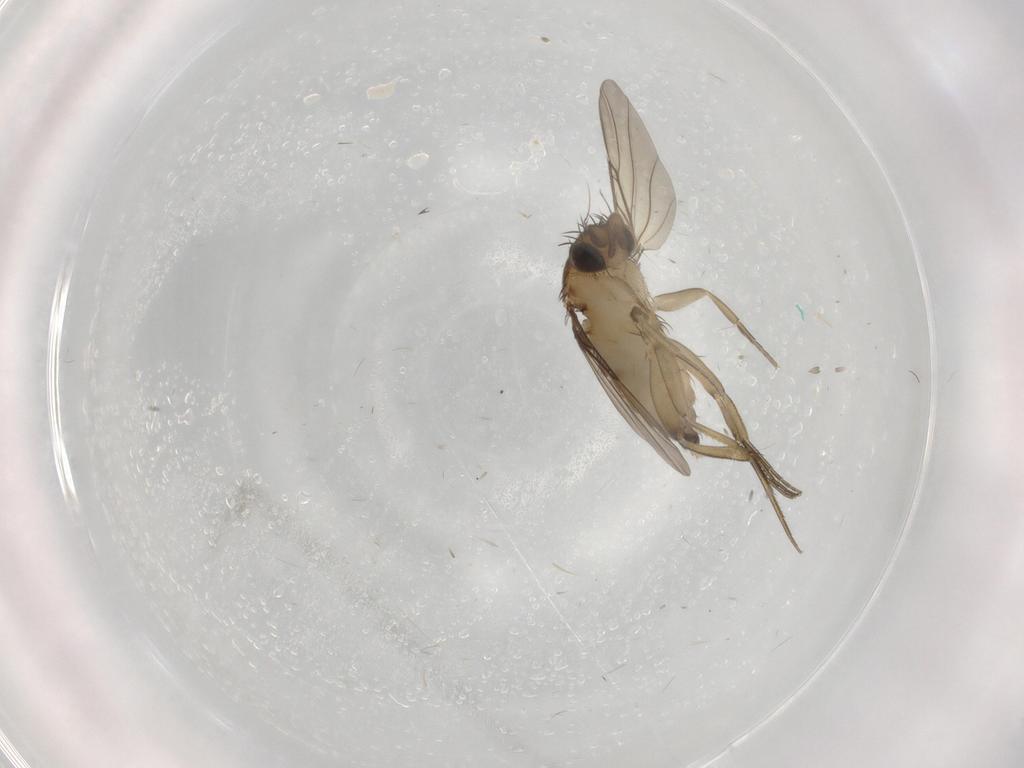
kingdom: Animalia
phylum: Arthropoda
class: Insecta
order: Diptera
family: Phoridae
